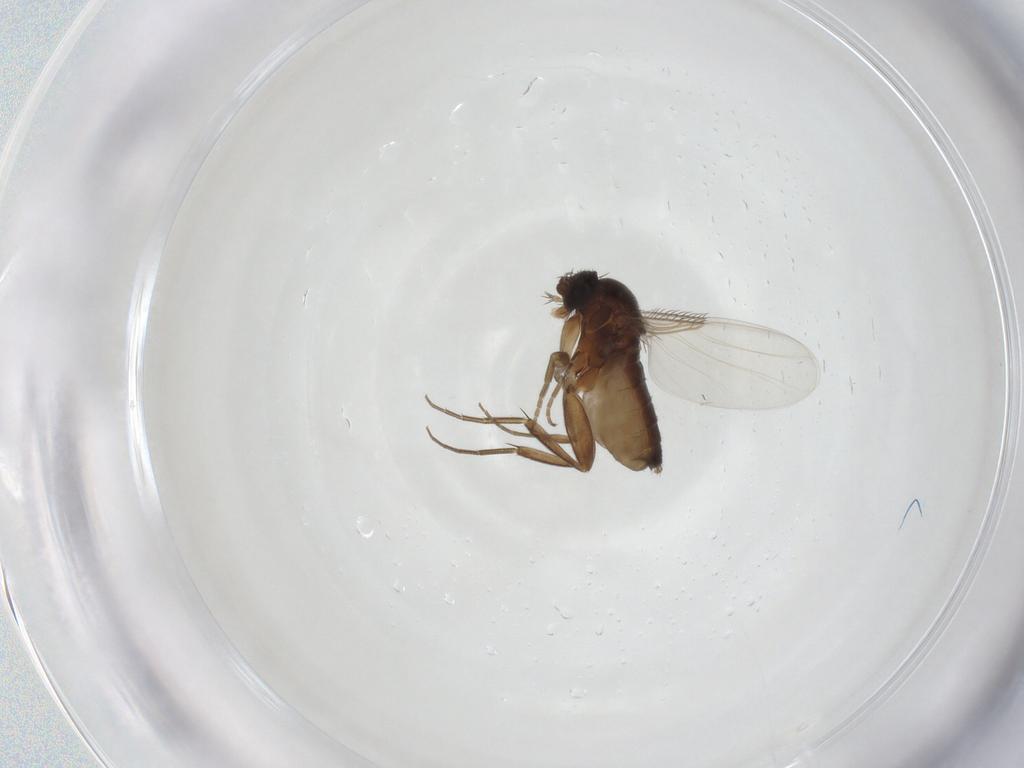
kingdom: Animalia
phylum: Arthropoda
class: Insecta
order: Diptera
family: Phoridae
